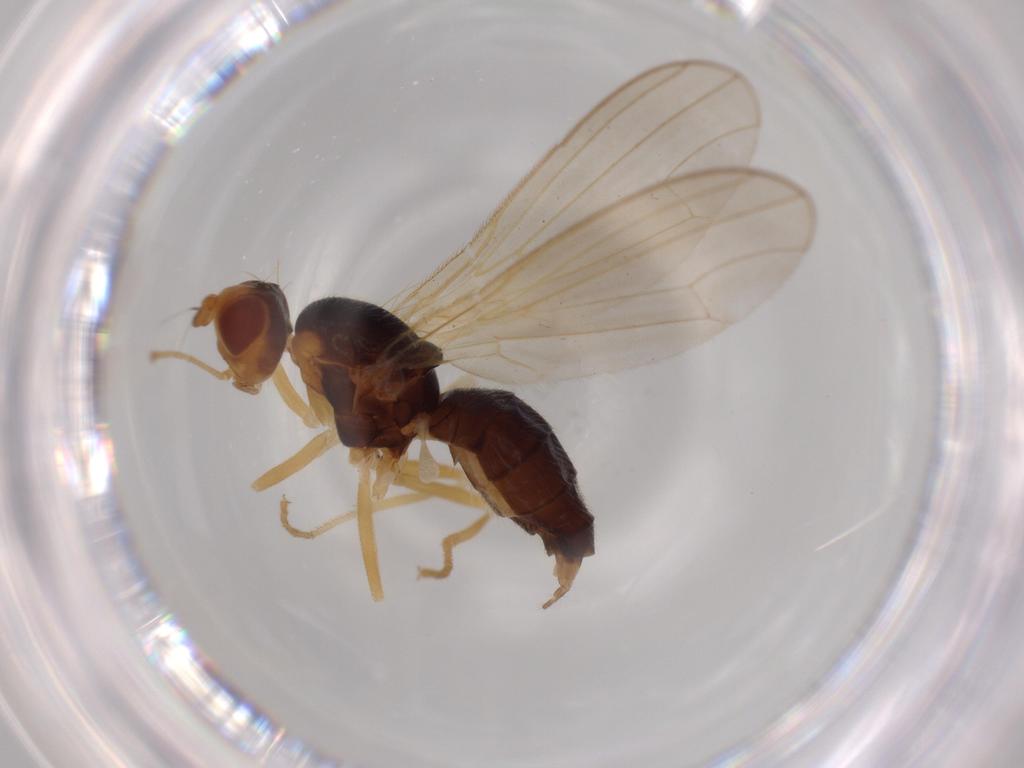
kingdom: Animalia
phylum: Arthropoda
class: Insecta
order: Diptera
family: Psilidae
